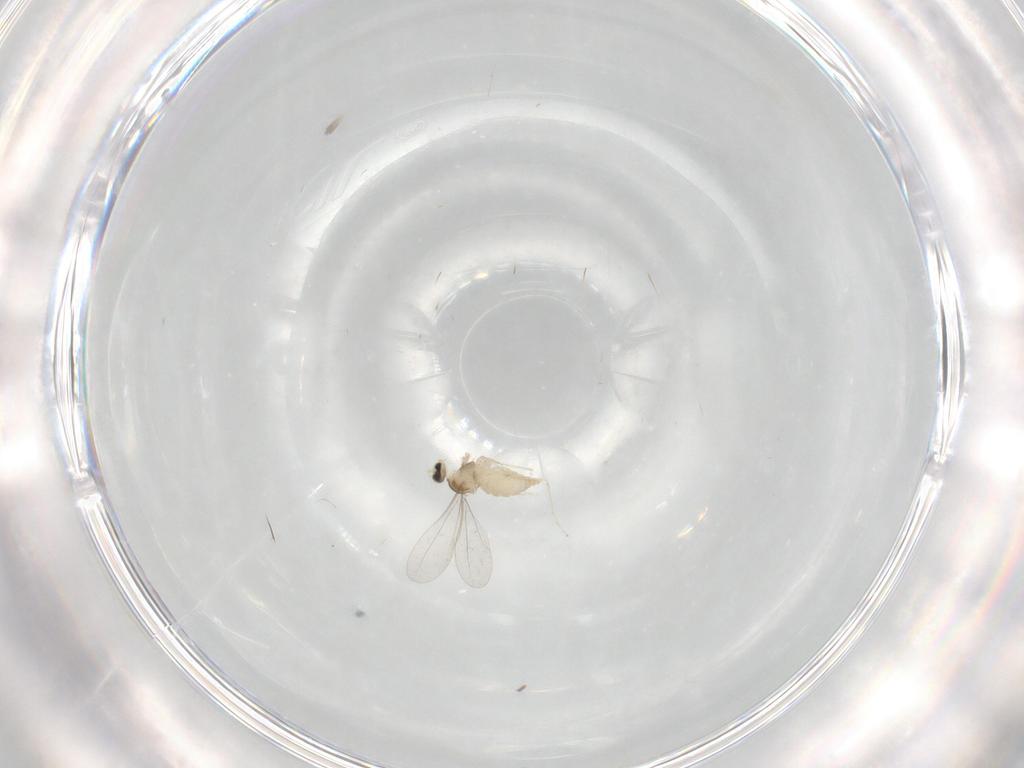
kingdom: Animalia
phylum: Arthropoda
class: Insecta
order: Diptera
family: Cecidomyiidae
